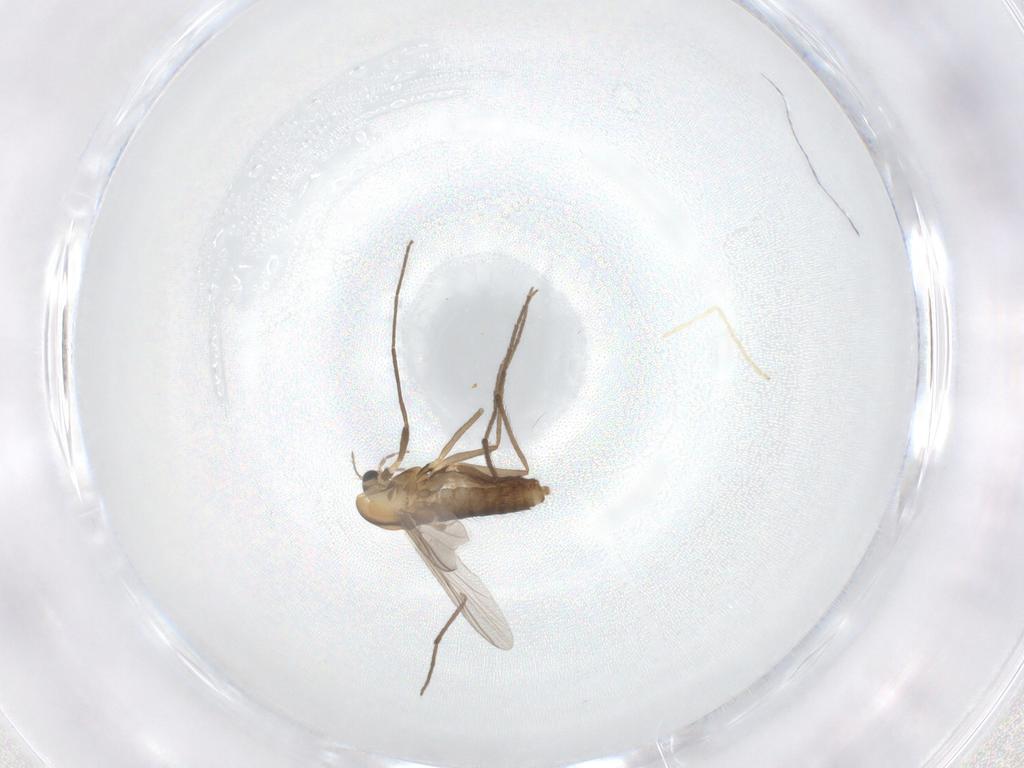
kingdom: Animalia
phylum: Arthropoda
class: Insecta
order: Diptera
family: Chironomidae
